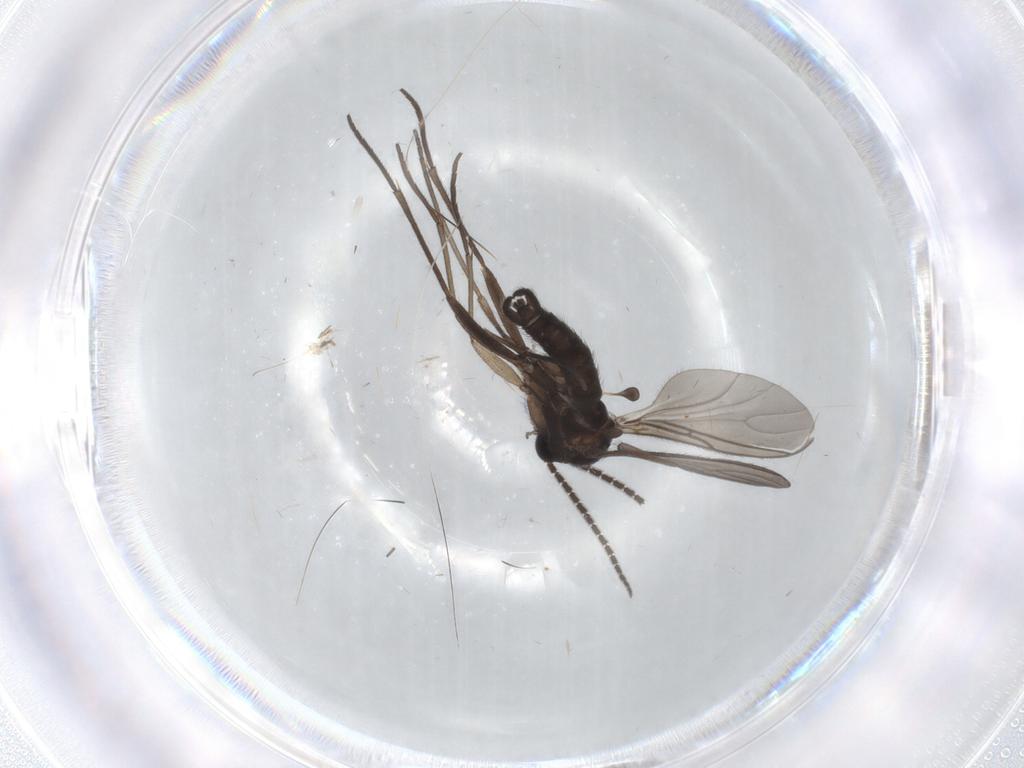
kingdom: Animalia
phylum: Arthropoda
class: Insecta
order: Diptera
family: Sciaridae
